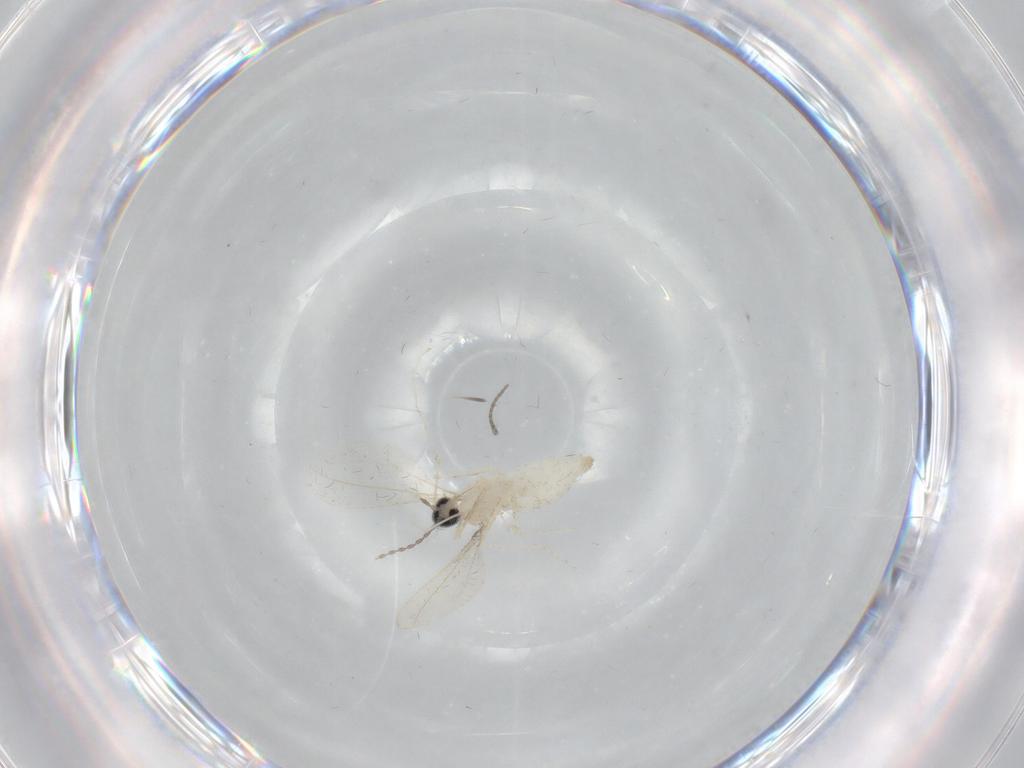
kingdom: Animalia
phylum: Arthropoda
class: Insecta
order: Diptera
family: Cecidomyiidae
